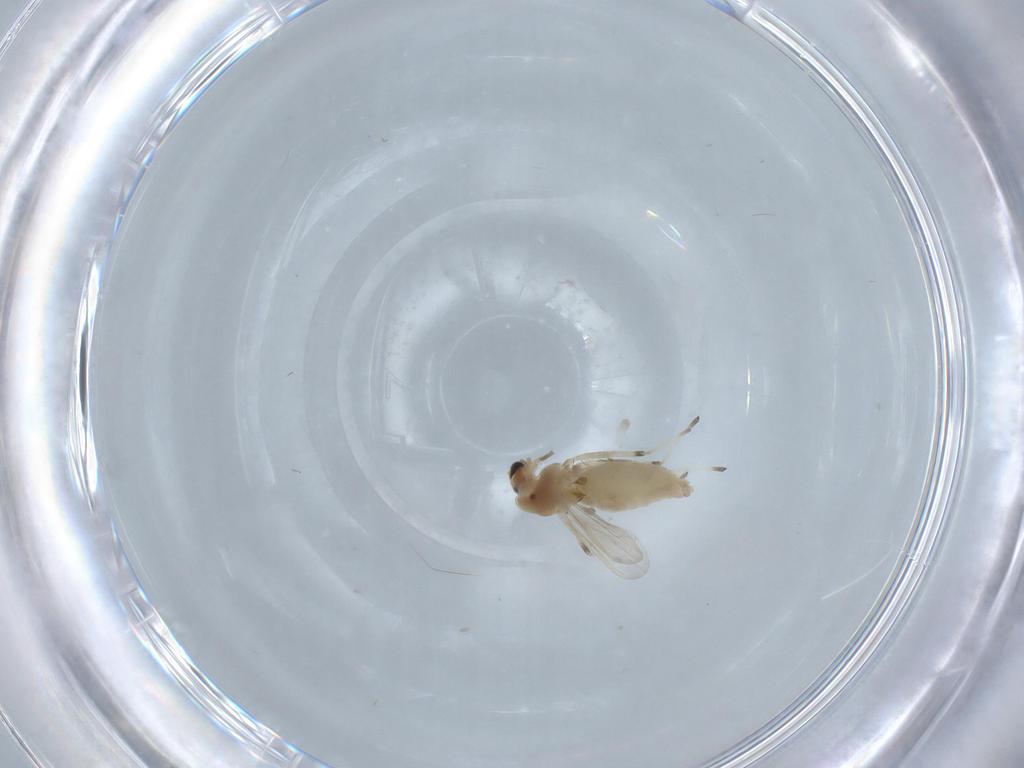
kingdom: Animalia
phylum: Arthropoda
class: Insecta
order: Diptera
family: Chironomidae
